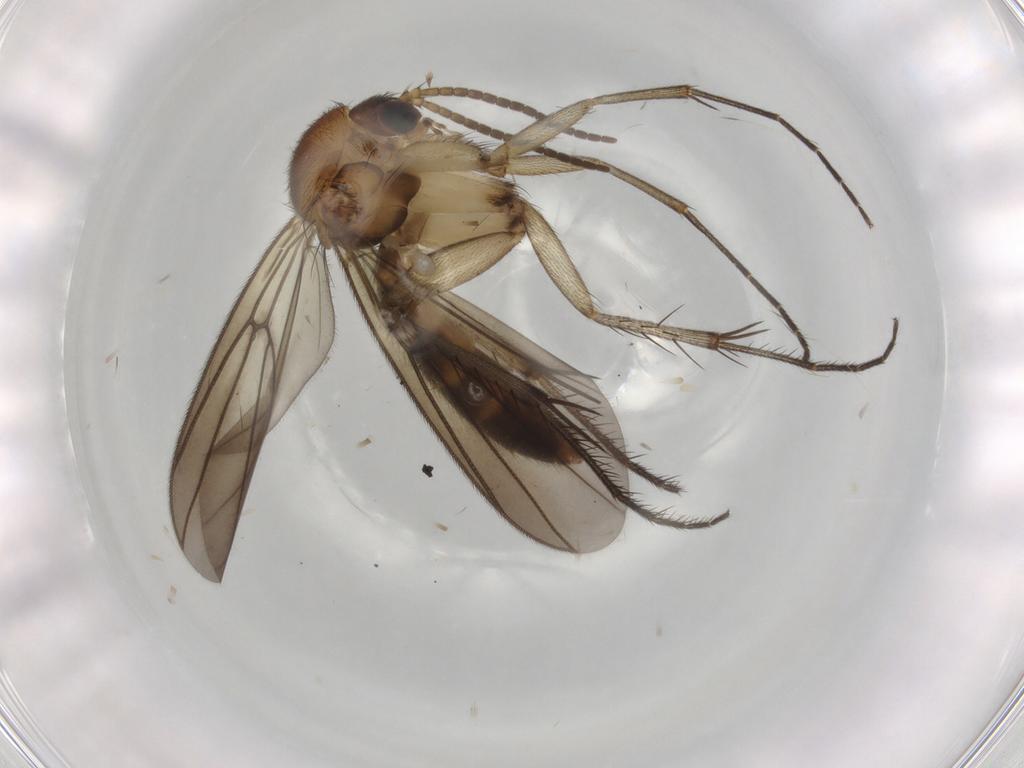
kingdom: Animalia
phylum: Arthropoda
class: Insecta
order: Diptera
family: Mycetophilidae
